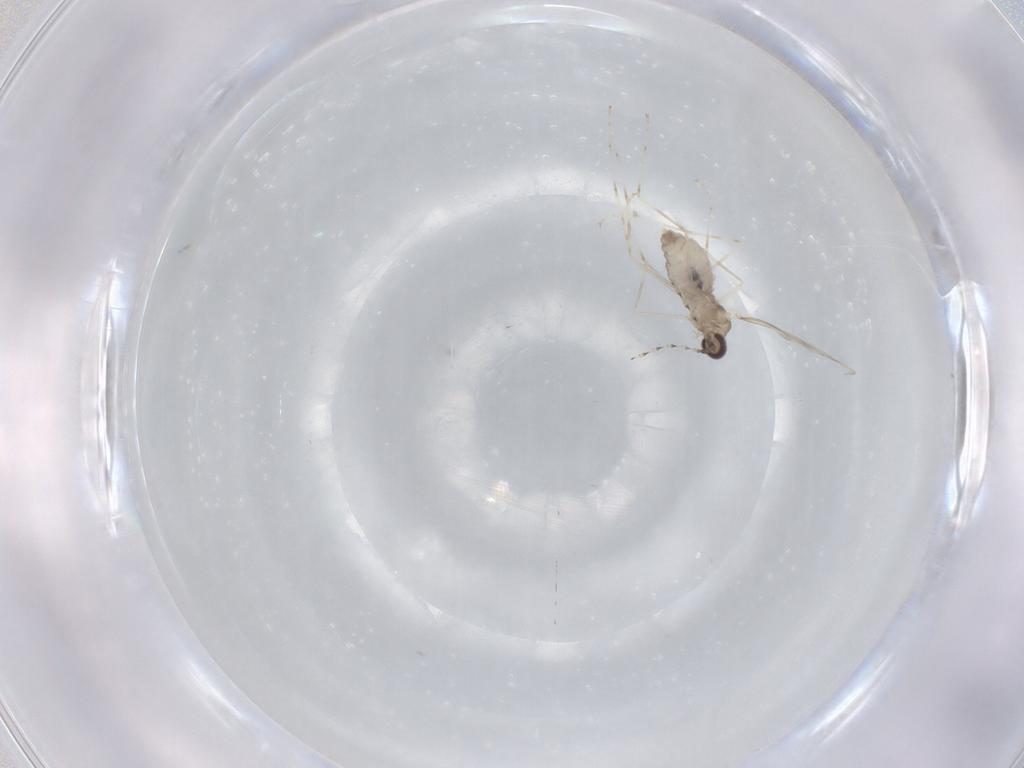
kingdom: Animalia
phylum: Arthropoda
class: Insecta
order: Diptera
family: Cecidomyiidae
